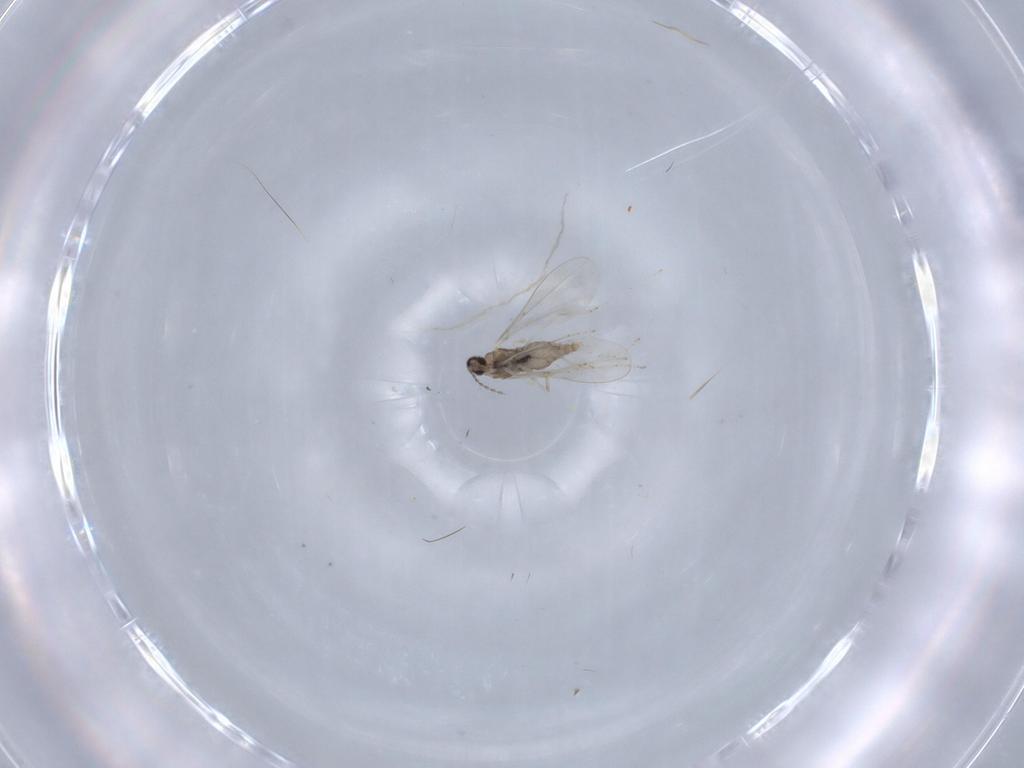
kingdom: Animalia
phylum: Arthropoda
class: Insecta
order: Diptera
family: Cecidomyiidae
